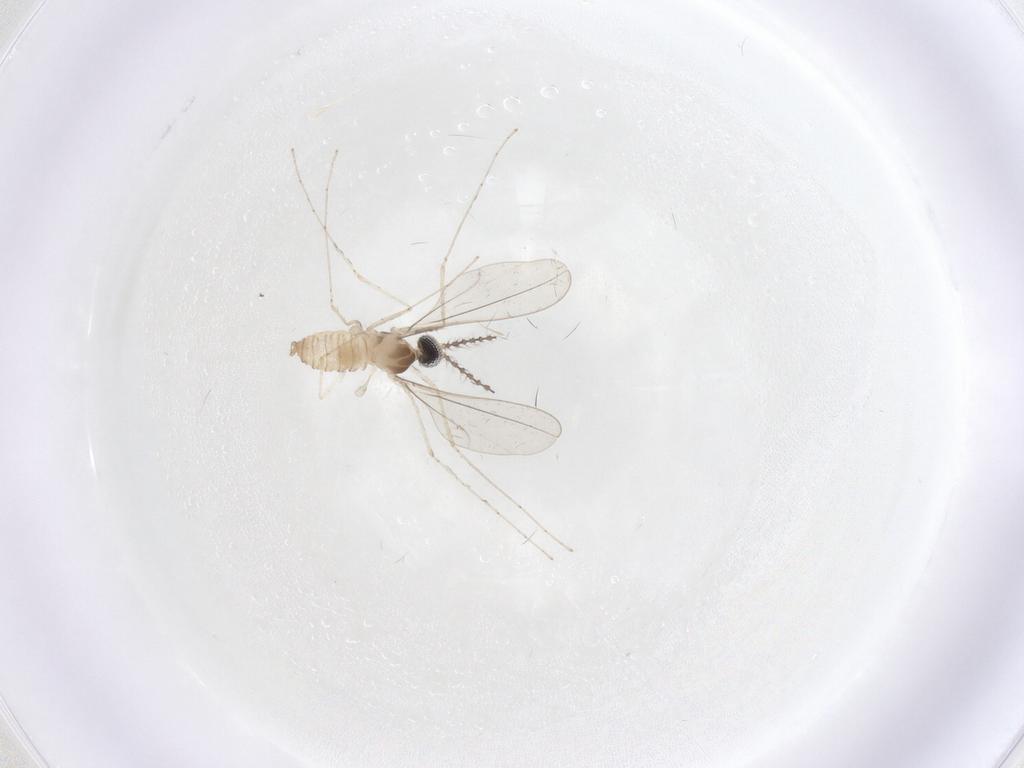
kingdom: Animalia
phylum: Arthropoda
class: Insecta
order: Diptera
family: Cecidomyiidae
